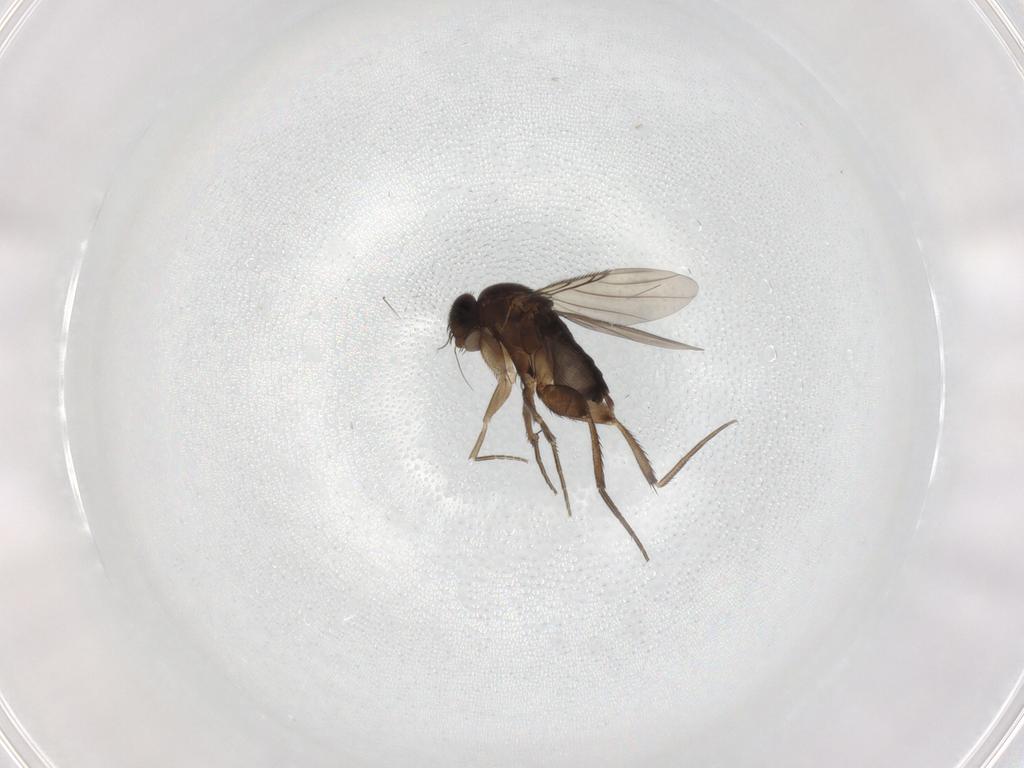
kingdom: Animalia
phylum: Arthropoda
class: Insecta
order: Diptera
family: Phoridae
